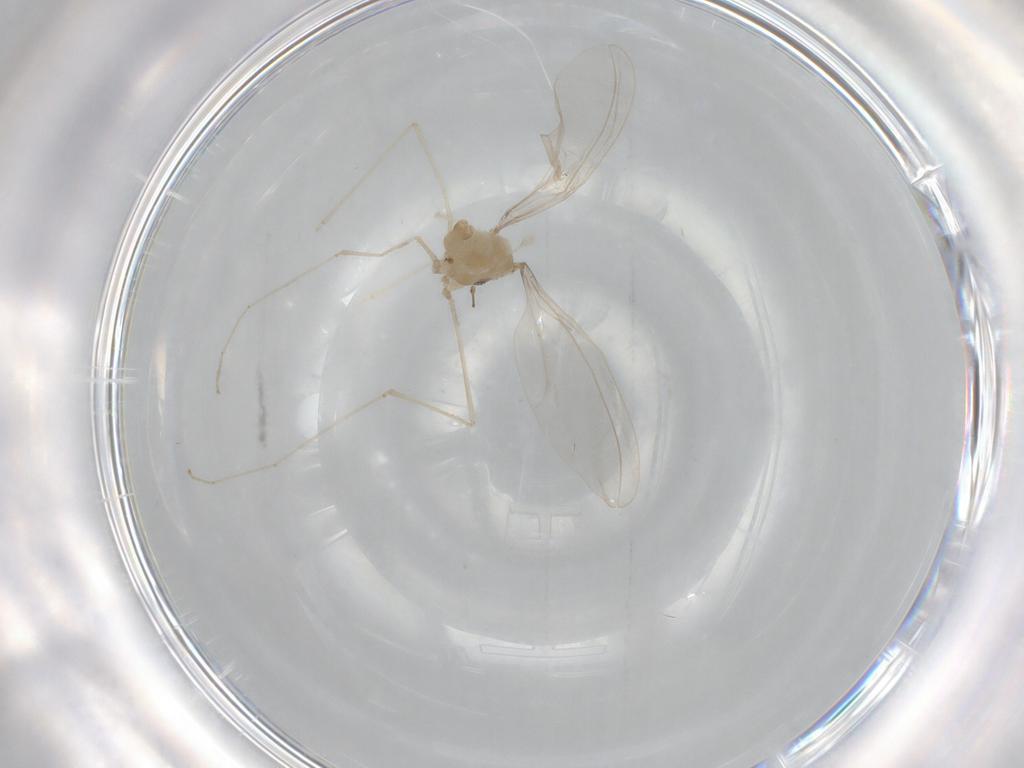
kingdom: Animalia
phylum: Arthropoda
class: Insecta
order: Diptera
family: Cecidomyiidae
